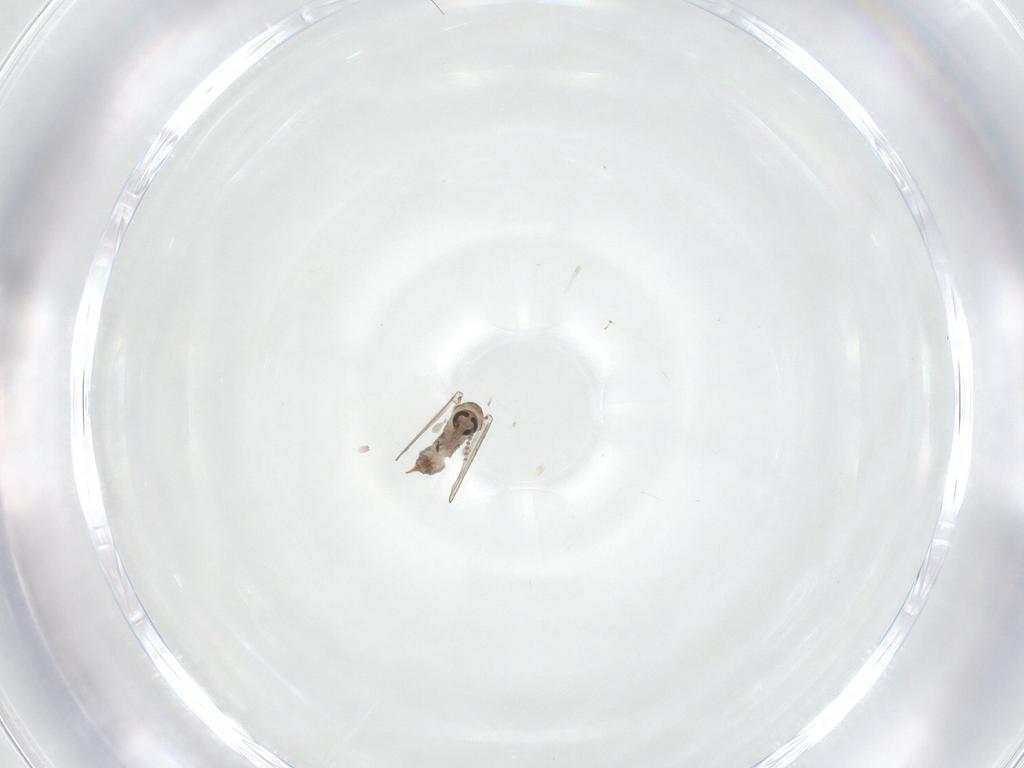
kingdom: Animalia
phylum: Arthropoda
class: Insecta
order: Diptera
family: Psychodidae
